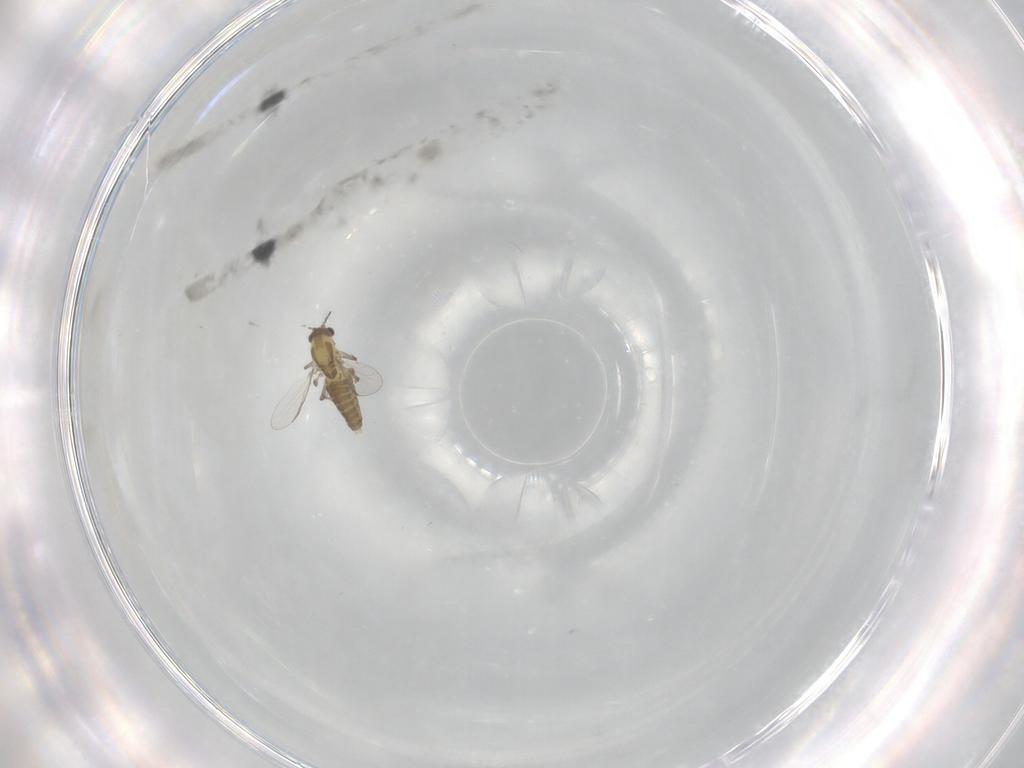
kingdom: Animalia
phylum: Arthropoda
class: Insecta
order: Diptera
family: Chironomidae
